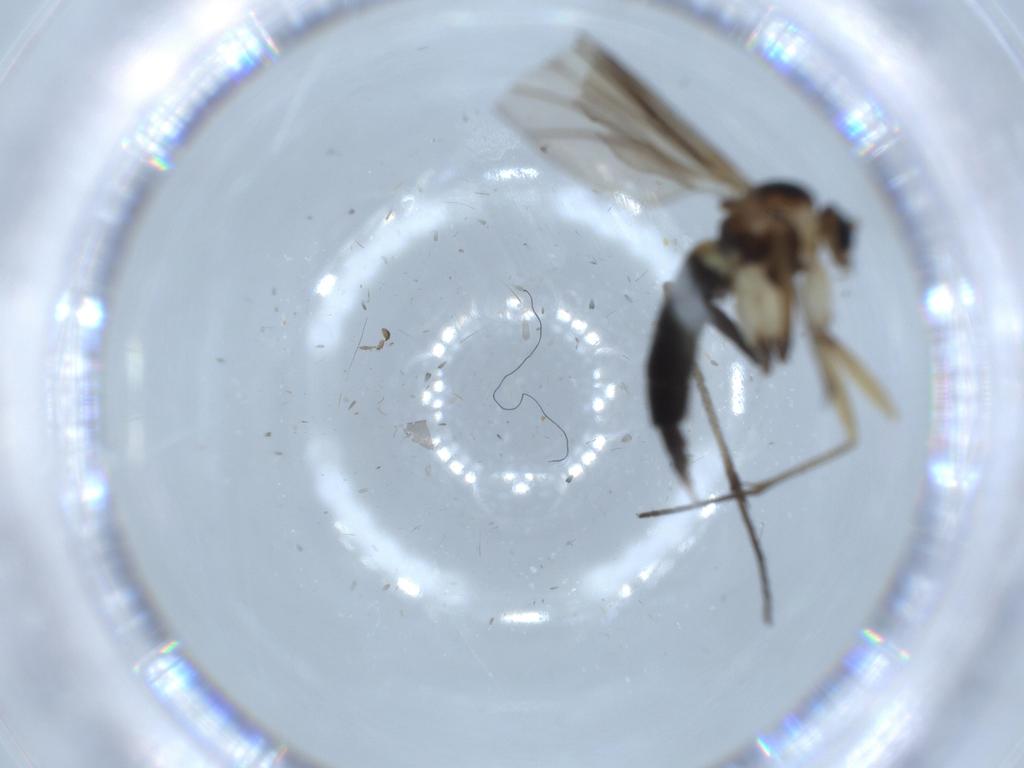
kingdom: Animalia
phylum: Arthropoda
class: Insecta
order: Diptera
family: Sciaridae
